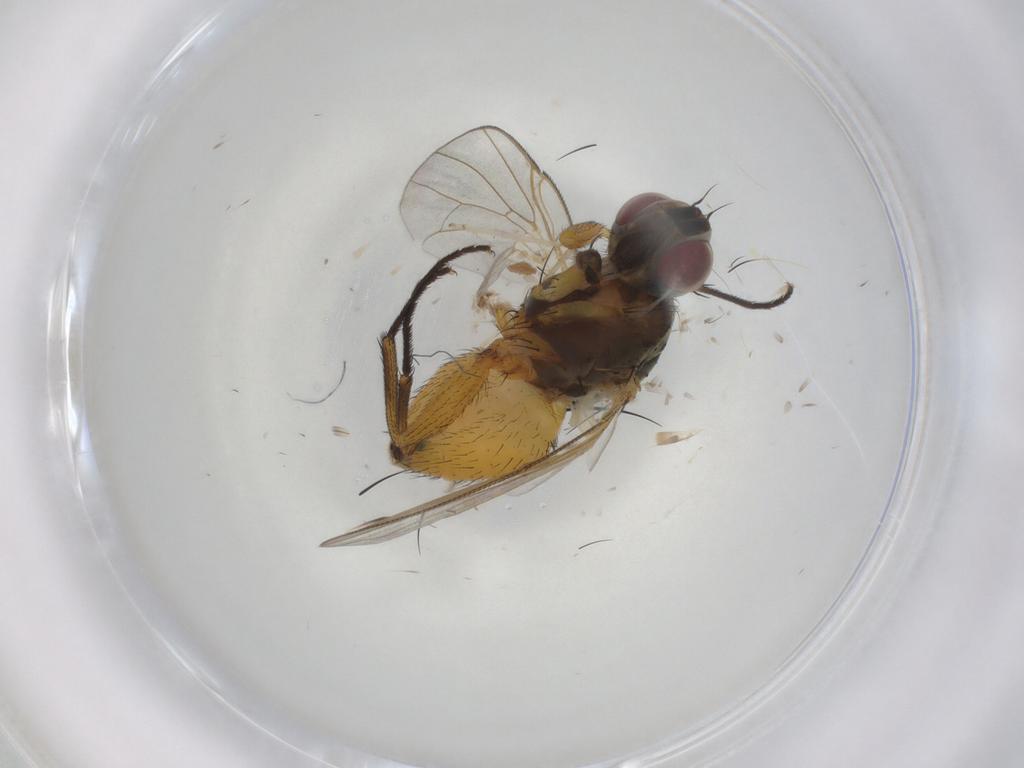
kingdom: Animalia
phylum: Arthropoda
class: Insecta
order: Diptera
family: Muscidae
